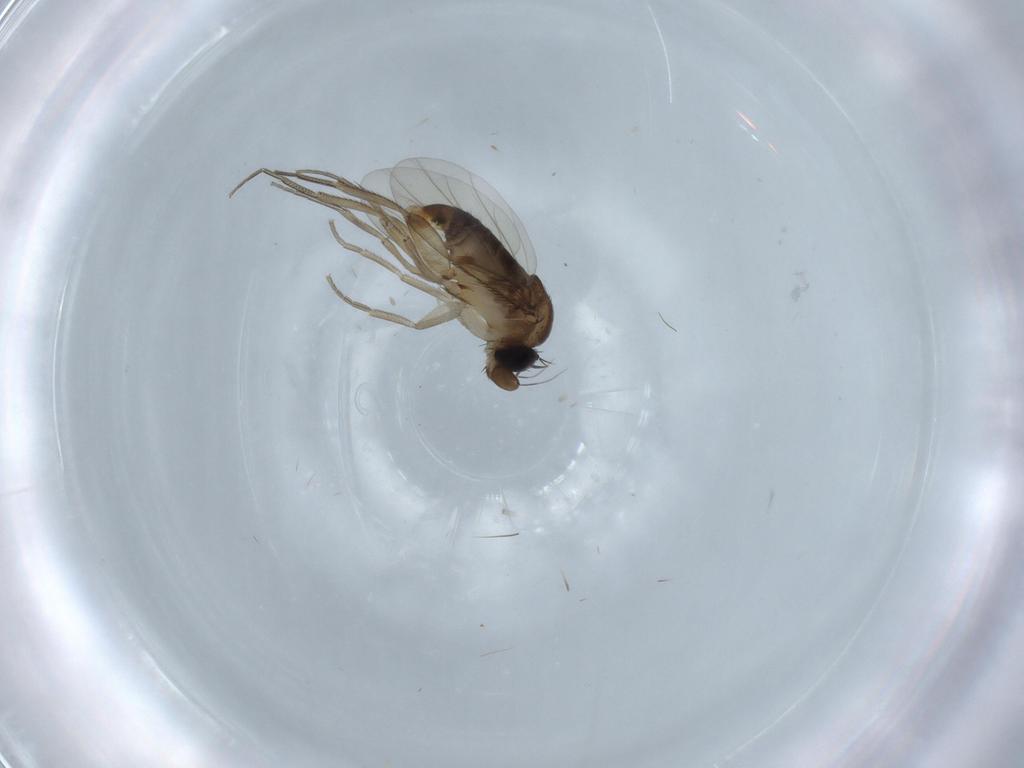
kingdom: Animalia
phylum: Arthropoda
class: Insecta
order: Diptera
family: Phoridae
